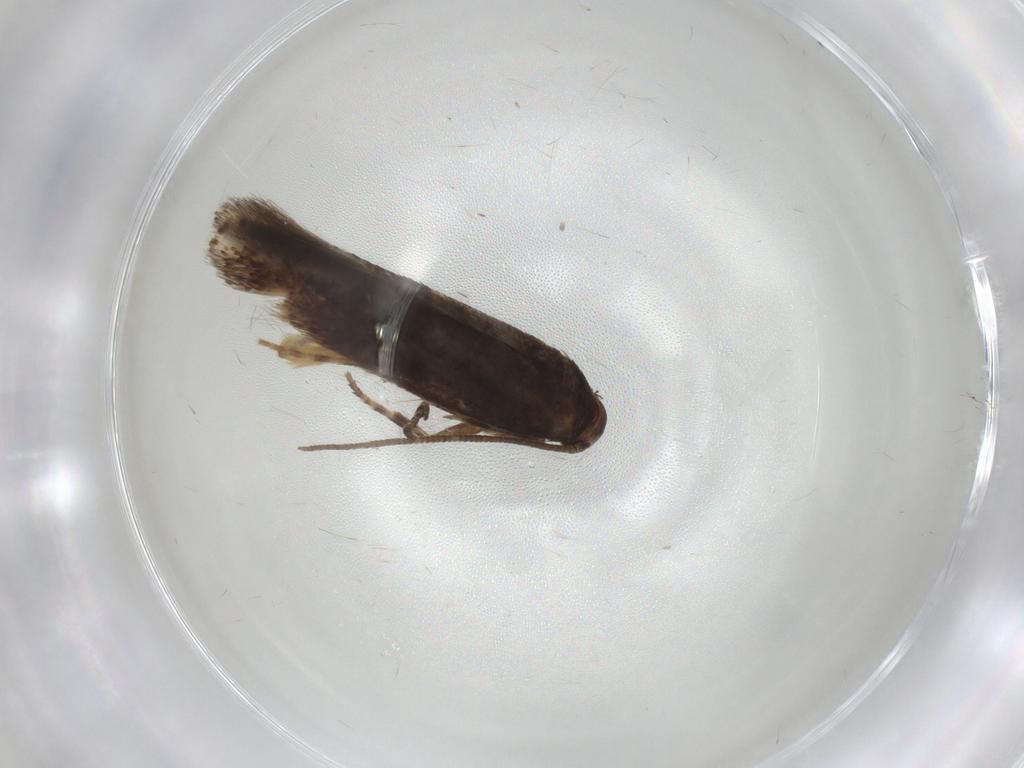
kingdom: Animalia
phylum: Arthropoda
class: Insecta
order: Lepidoptera
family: Elachistidae
